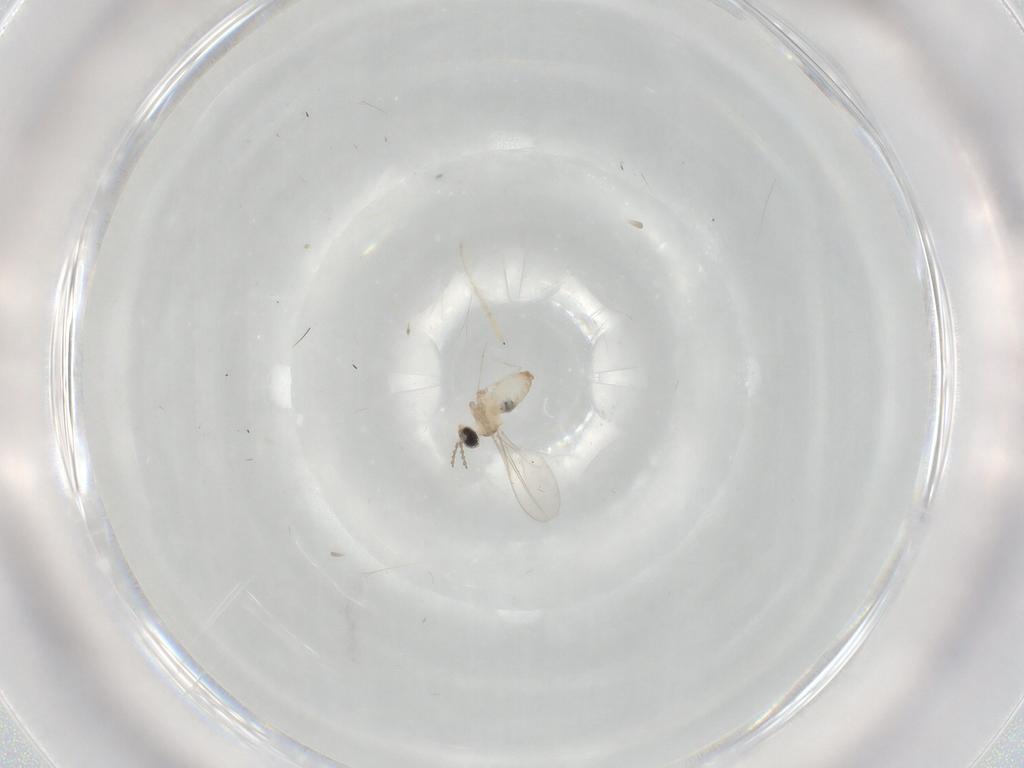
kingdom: Animalia
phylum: Arthropoda
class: Insecta
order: Diptera
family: Cecidomyiidae
